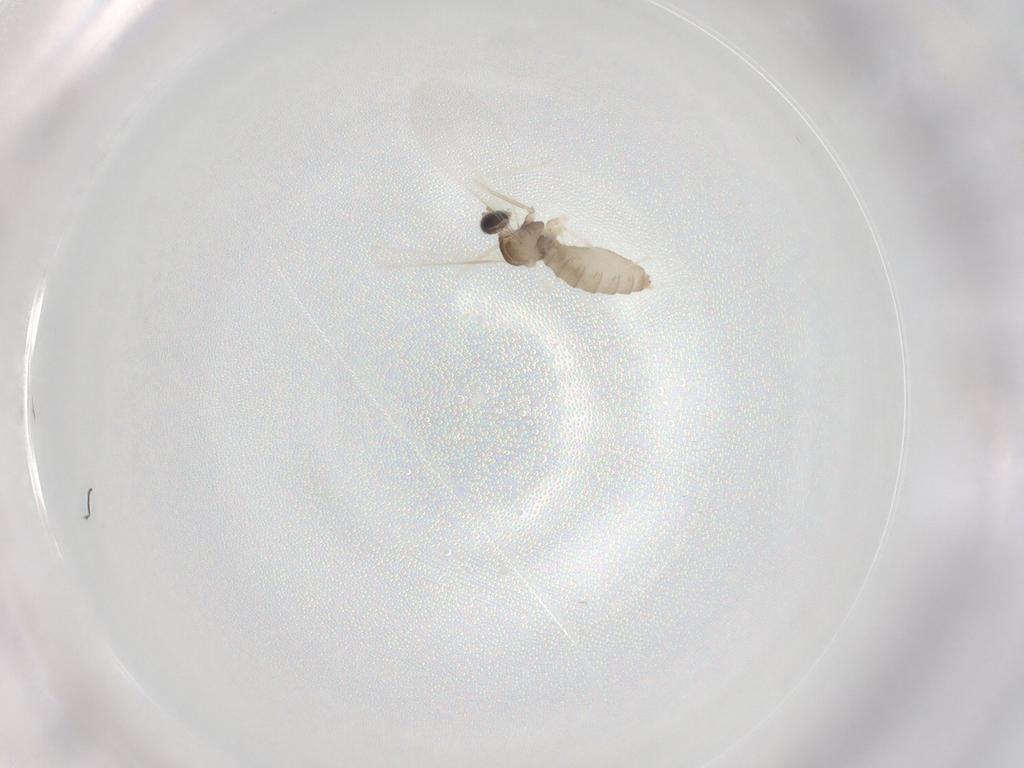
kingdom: Animalia
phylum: Arthropoda
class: Insecta
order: Diptera
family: Cecidomyiidae
